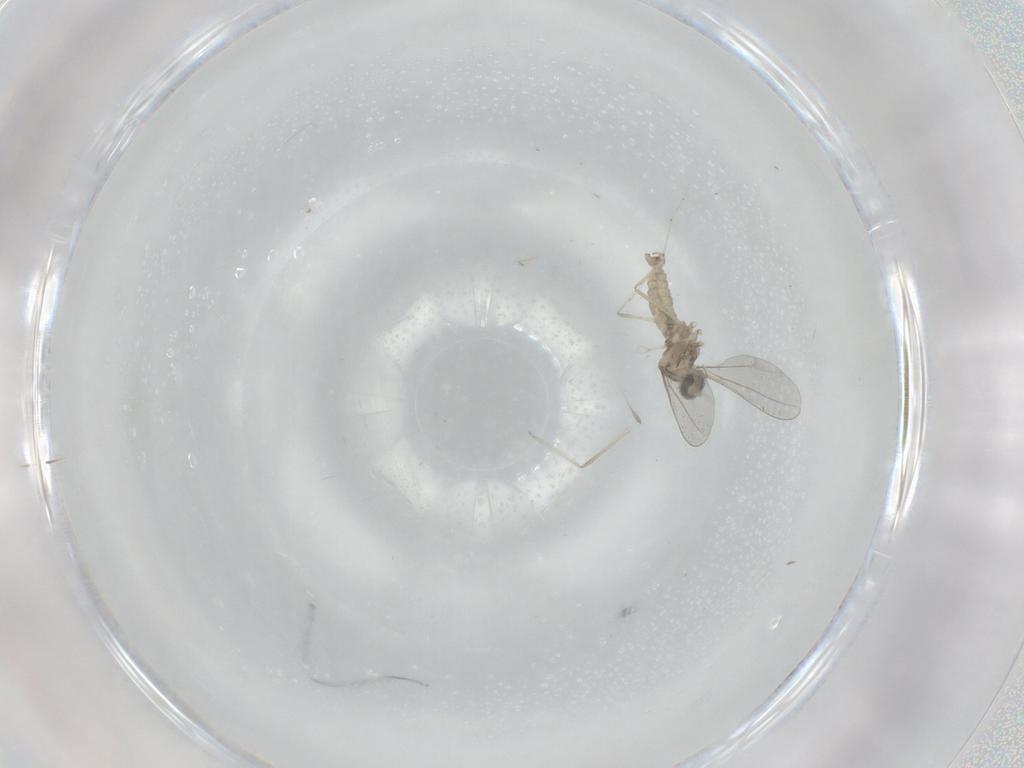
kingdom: Animalia
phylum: Arthropoda
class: Insecta
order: Diptera
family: Cecidomyiidae
